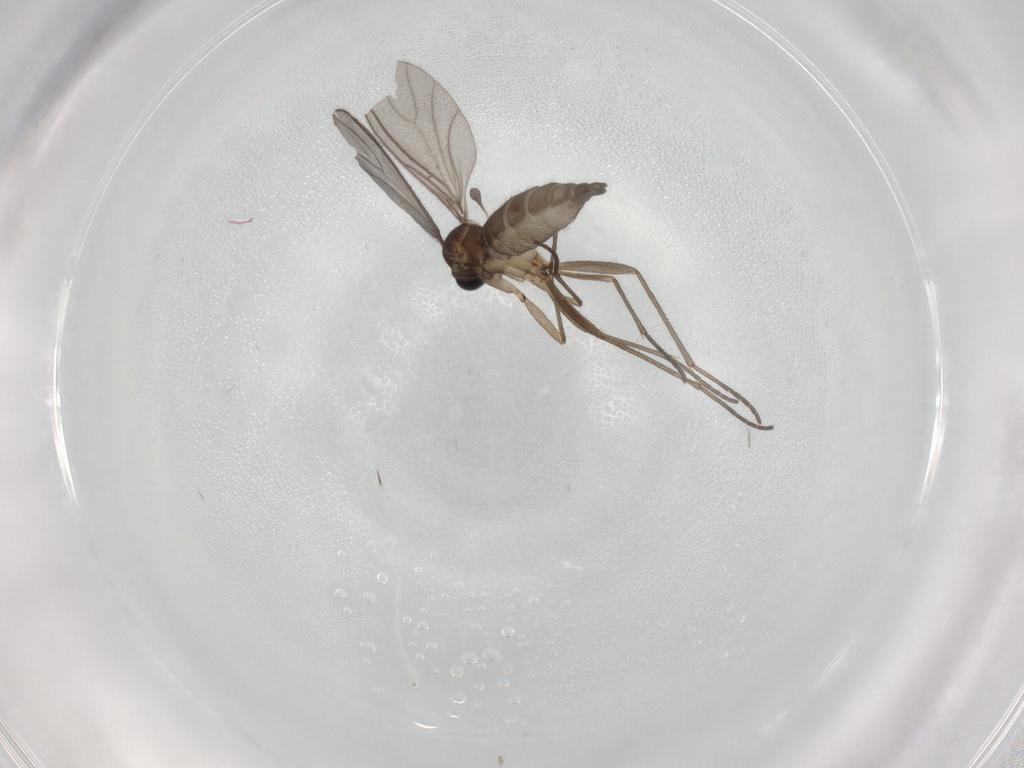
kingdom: Animalia
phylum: Arthropoda
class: Insecta
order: Diptera
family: Sciaridae
